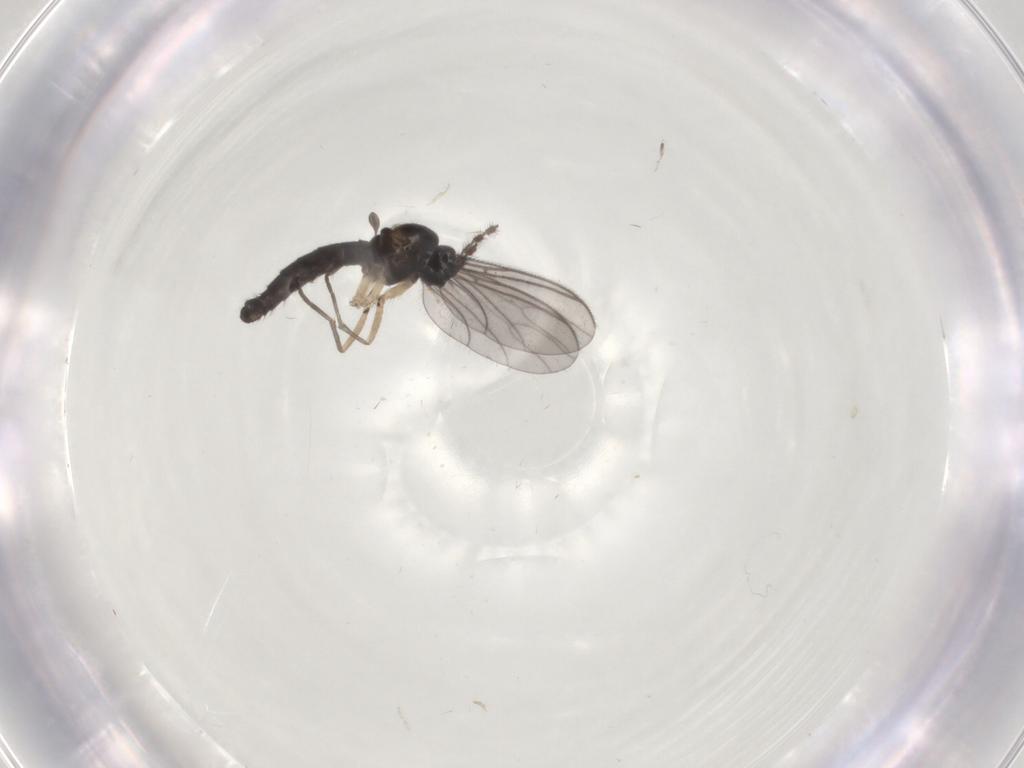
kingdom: Animalia
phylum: Arthropoda
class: Insecta
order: Diptera
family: Sciaridae
